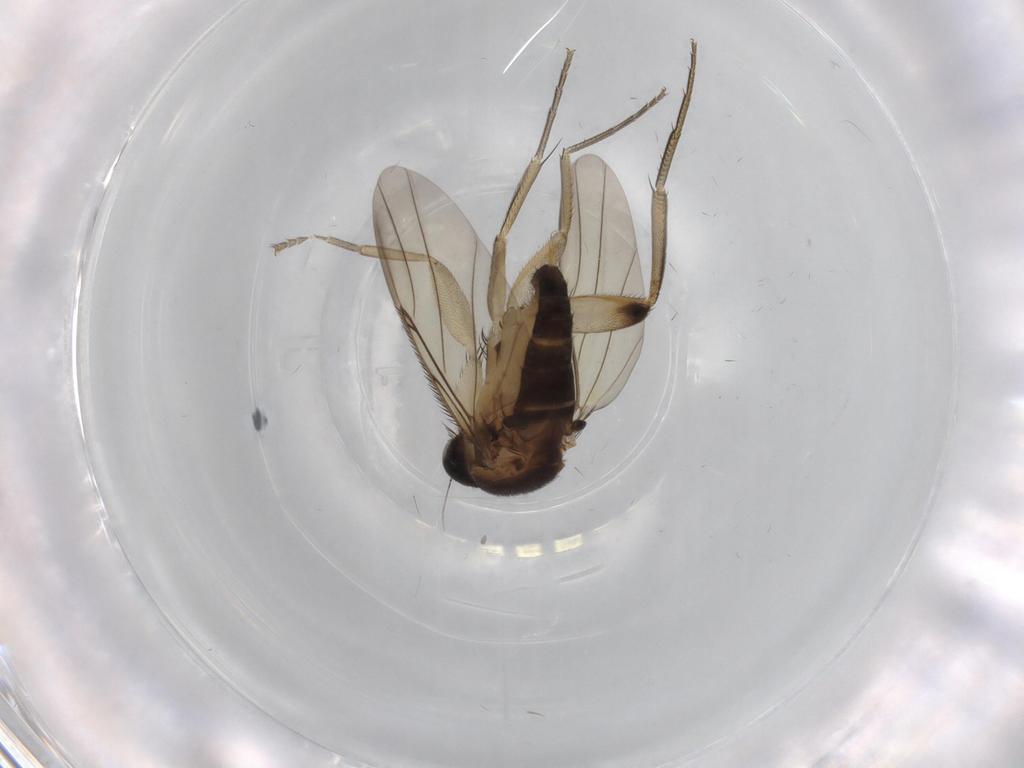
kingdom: Animalia
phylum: Arthropoda
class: Insecta
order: Diptera
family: Phoridae
